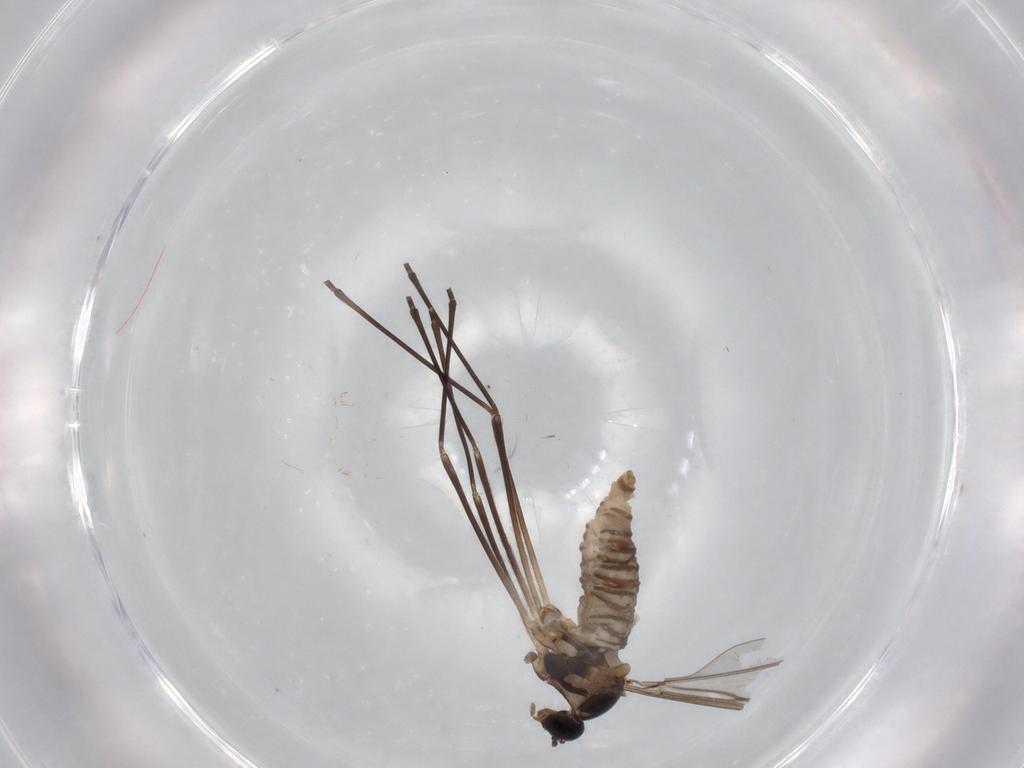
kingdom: Animalia
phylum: Arthropoda
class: Insecta
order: Diptera
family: Cecidomyiidae
